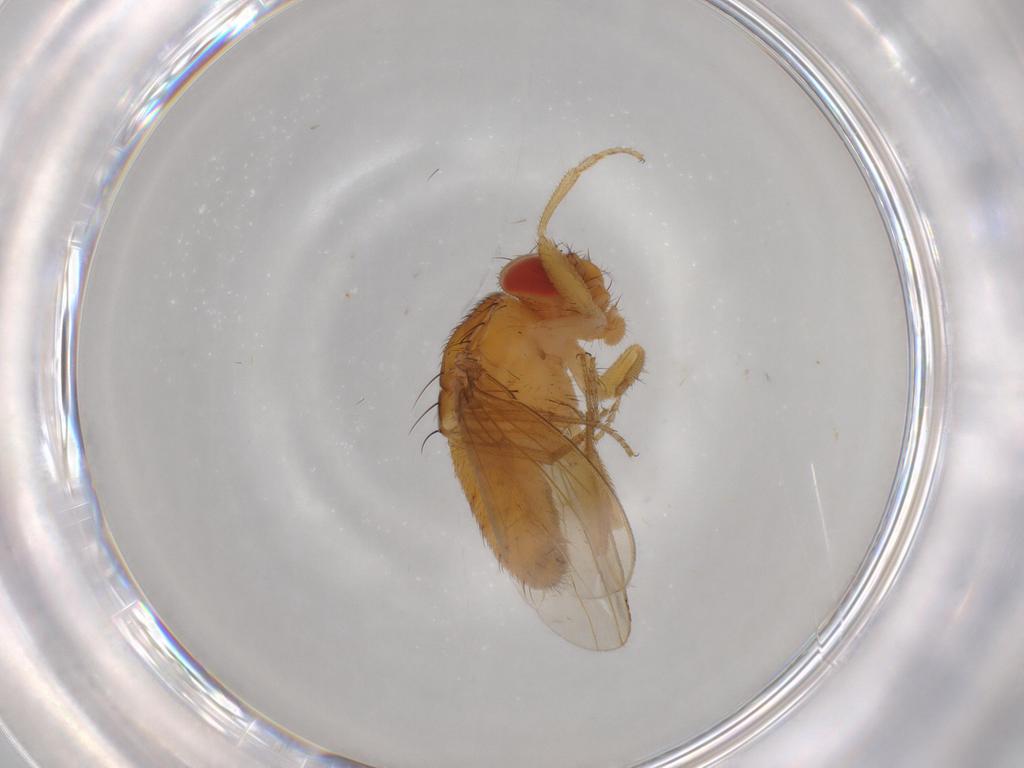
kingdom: Animalia
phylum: Arthropoda
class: Insecta
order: Diptera
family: Drosophilidae
